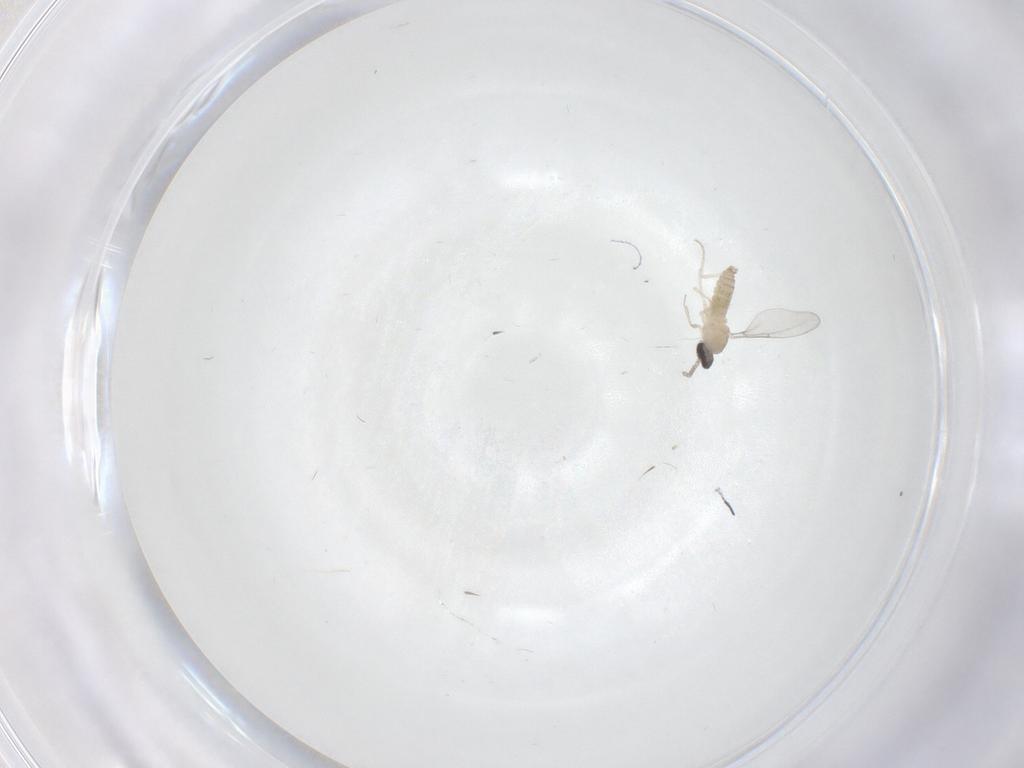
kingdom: Animalia
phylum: Arthropoda
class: Insecta
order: Diptera
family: Cecidomyiidae
